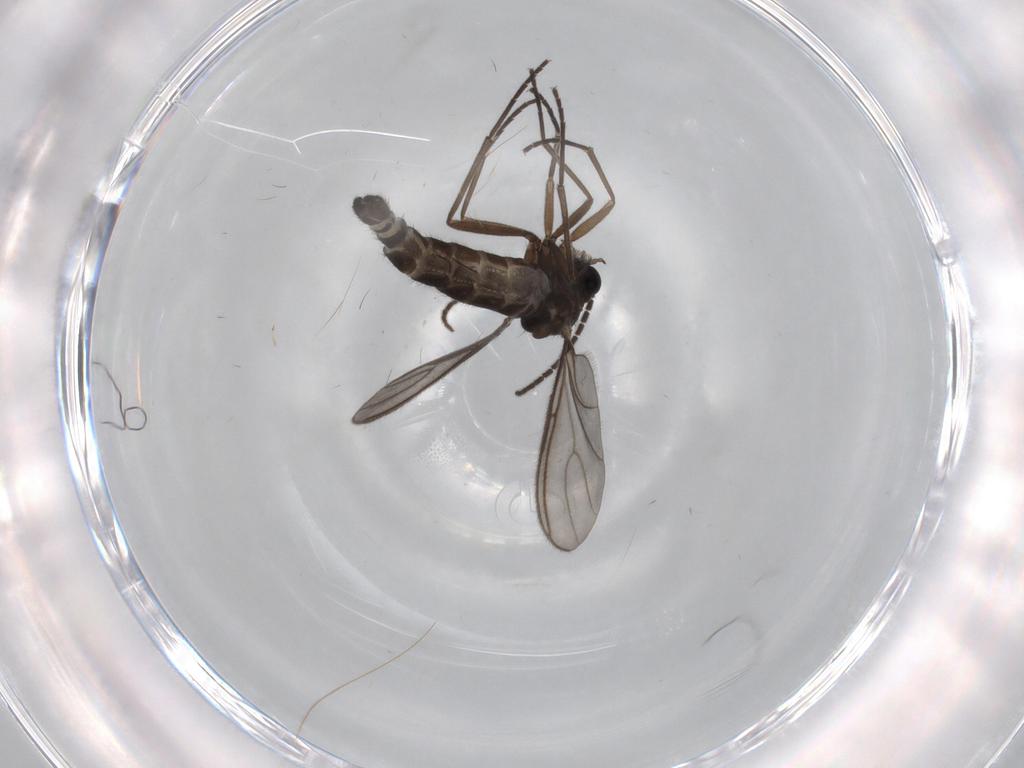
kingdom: Animalia
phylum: Arthropoda
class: Insecta
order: Diptera
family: Sciaridae
